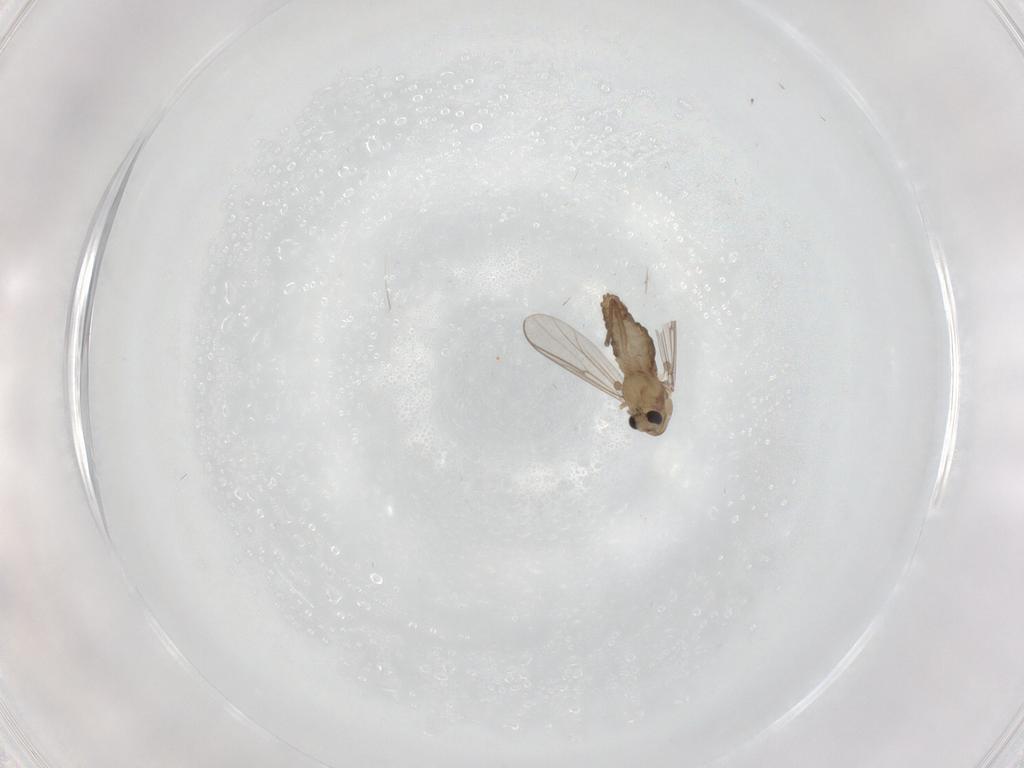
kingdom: Animalia
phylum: Arthropoda
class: Insecta
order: Diptera
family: Chironomidae
